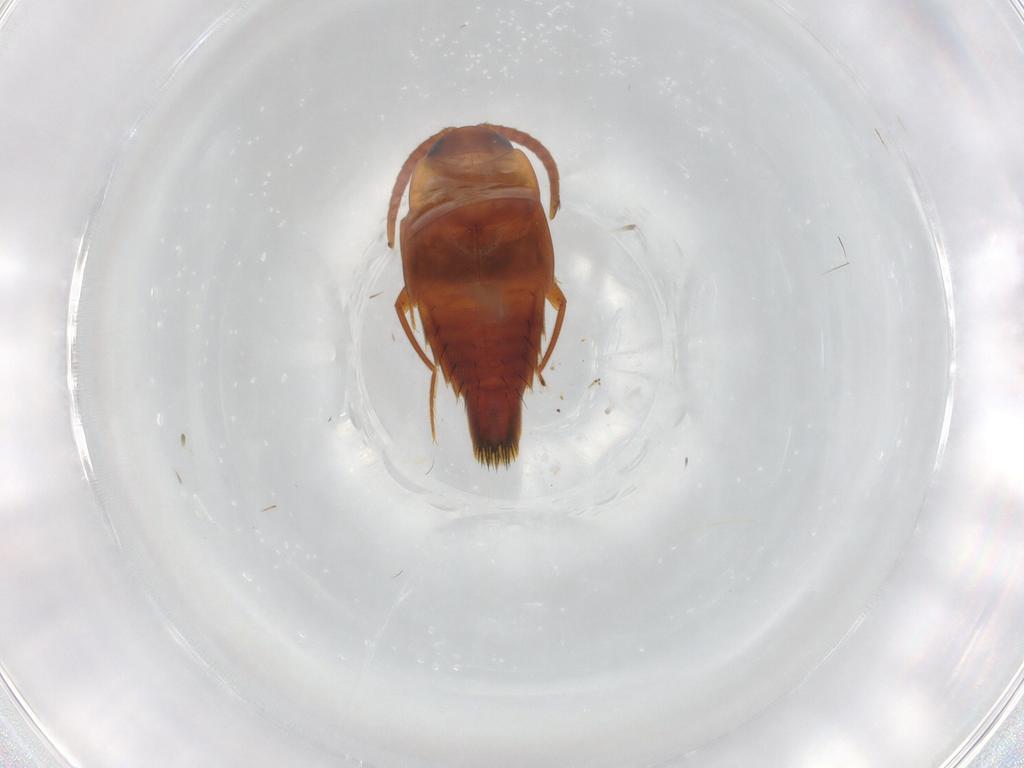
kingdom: Animalia
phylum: Arthropoda
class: Insecta
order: Coleoptera
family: Staphylinidae
